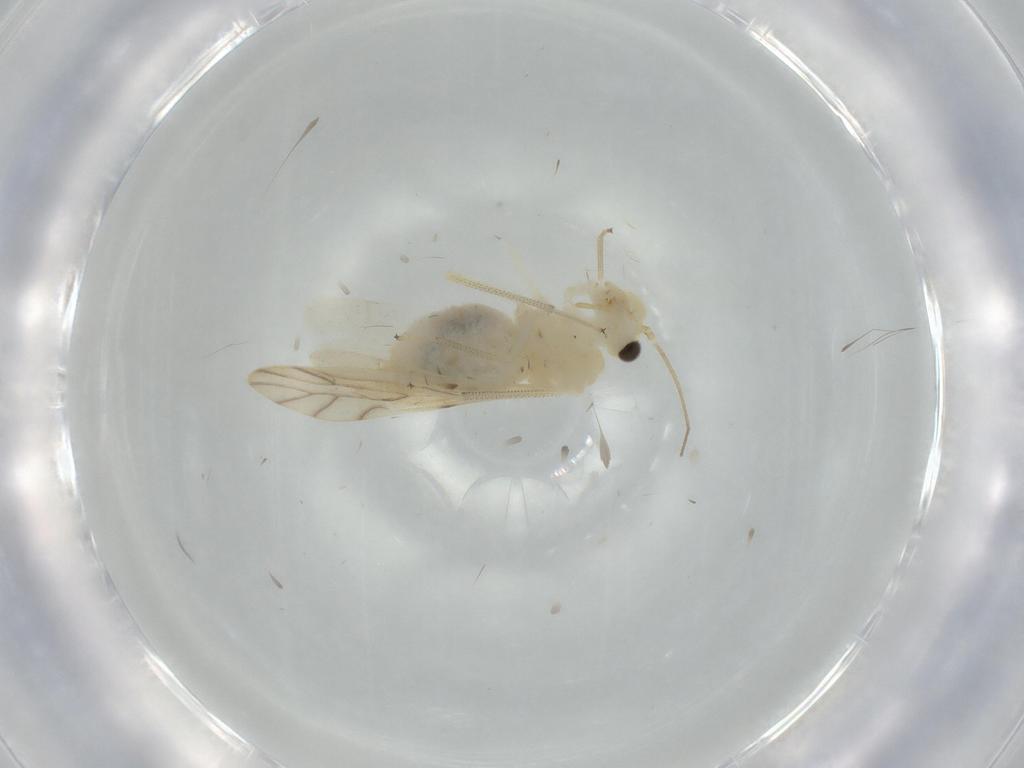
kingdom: Animalia
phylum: Arthropoda
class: Insecta
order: Psocodea
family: Caeciliusidae
